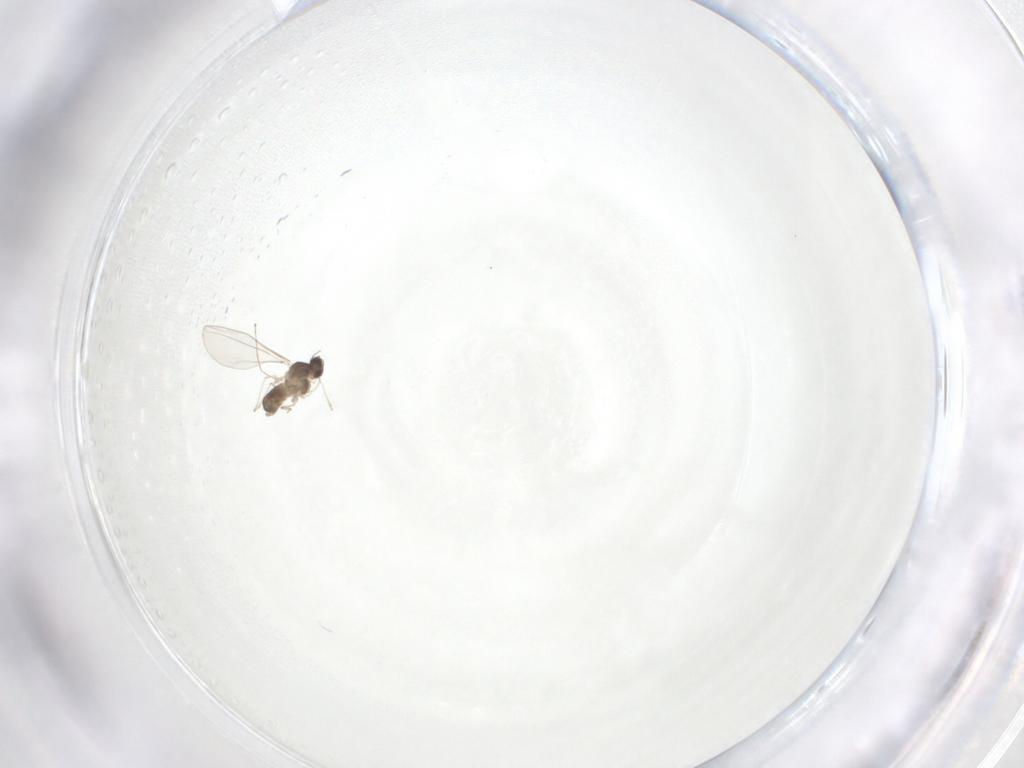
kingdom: Animalia
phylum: Arthropoda
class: Insecta
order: Diptera
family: Cecidomyiidae
